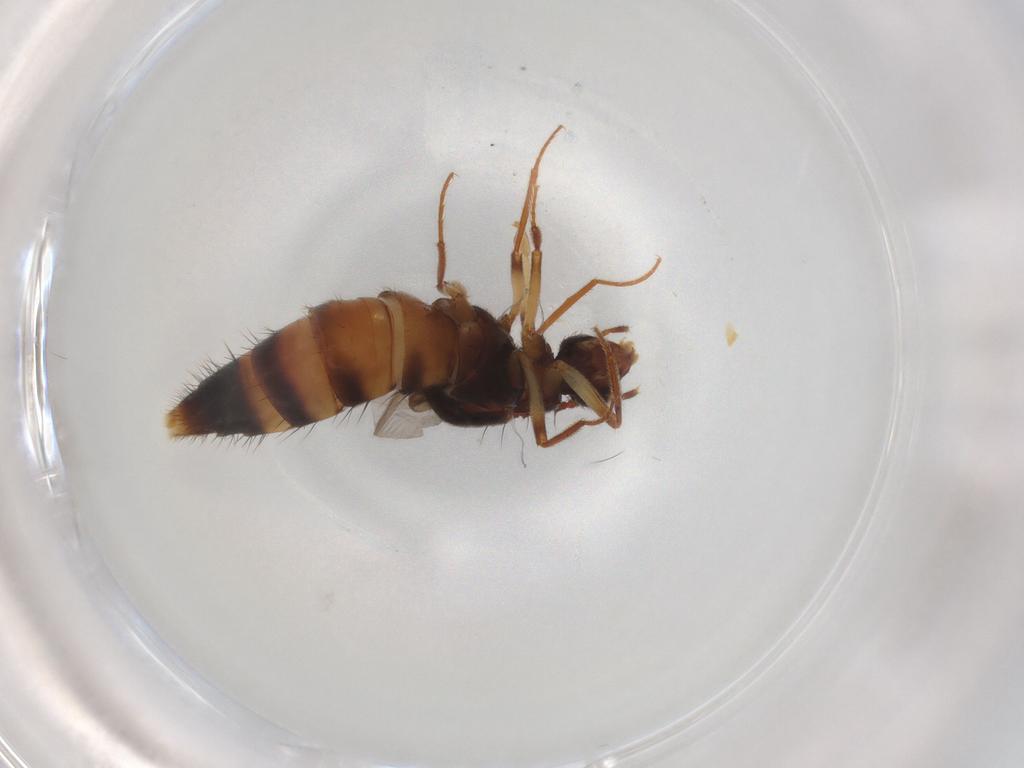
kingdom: Animalia
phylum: Arthropoda
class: Insecta
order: Coleoptera
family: Staphylinidae
